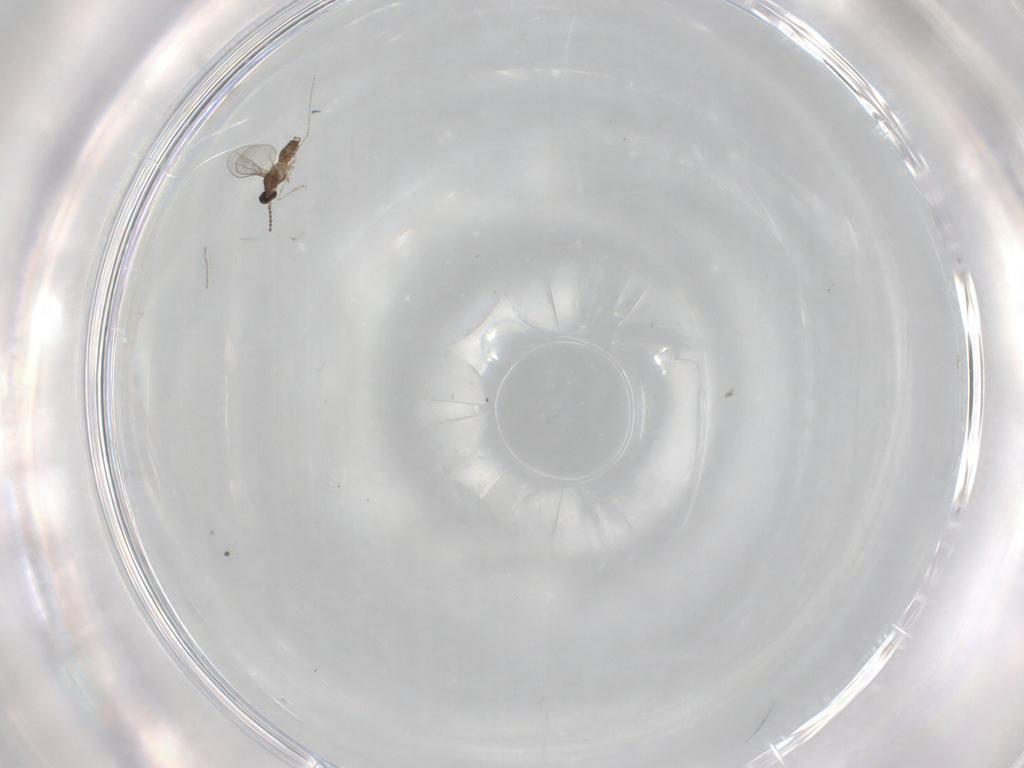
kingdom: Animalia
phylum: Arthropoda
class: Insecta
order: Diptera
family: Cecidomyiidae
